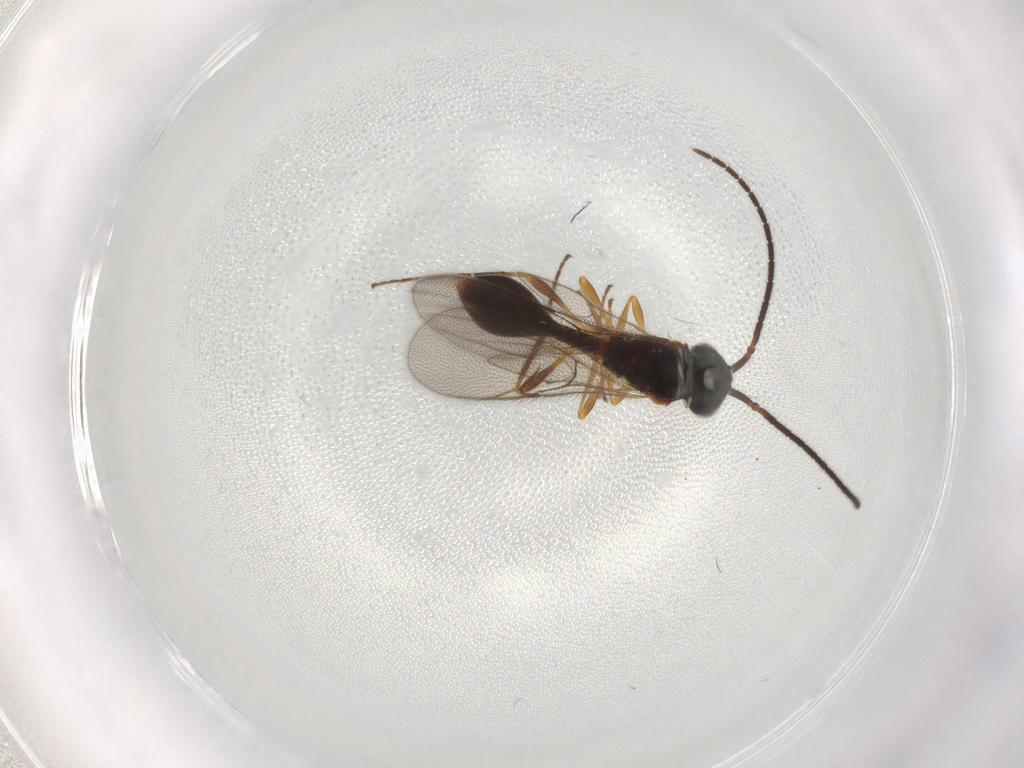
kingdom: Animalia
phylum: Arthropoda
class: Insecta
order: Hymenoptera
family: Diapriidae
